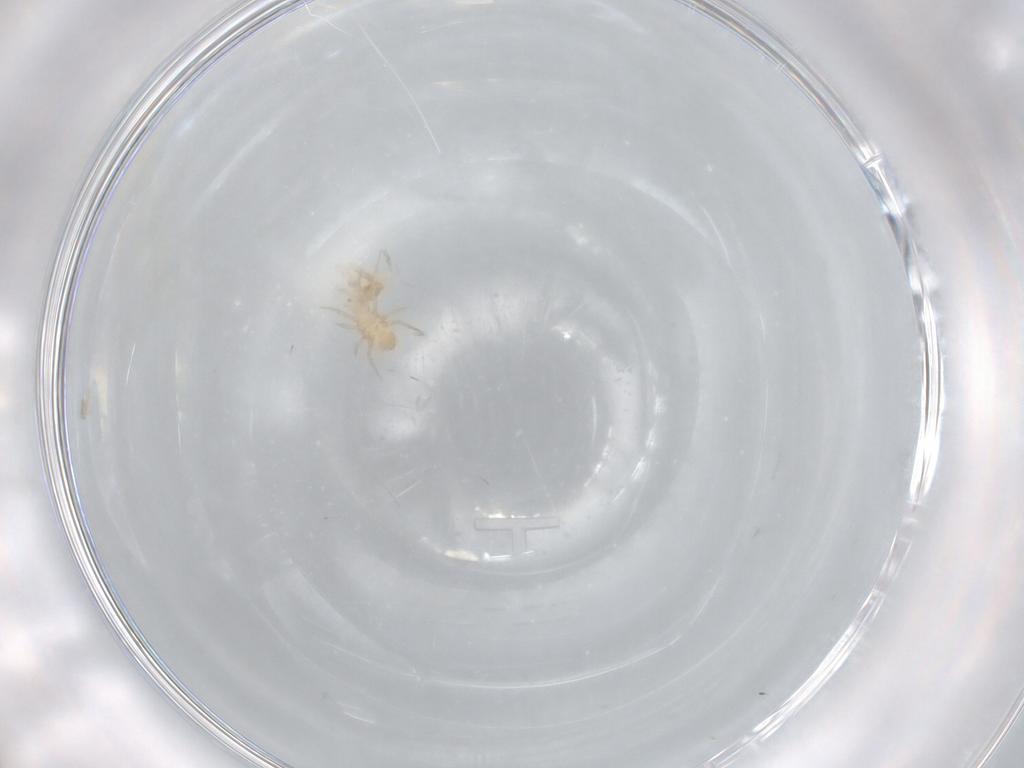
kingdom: Animalia
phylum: Arthropoda
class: Arachnida
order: Mesostigmata
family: Blattisociidae
